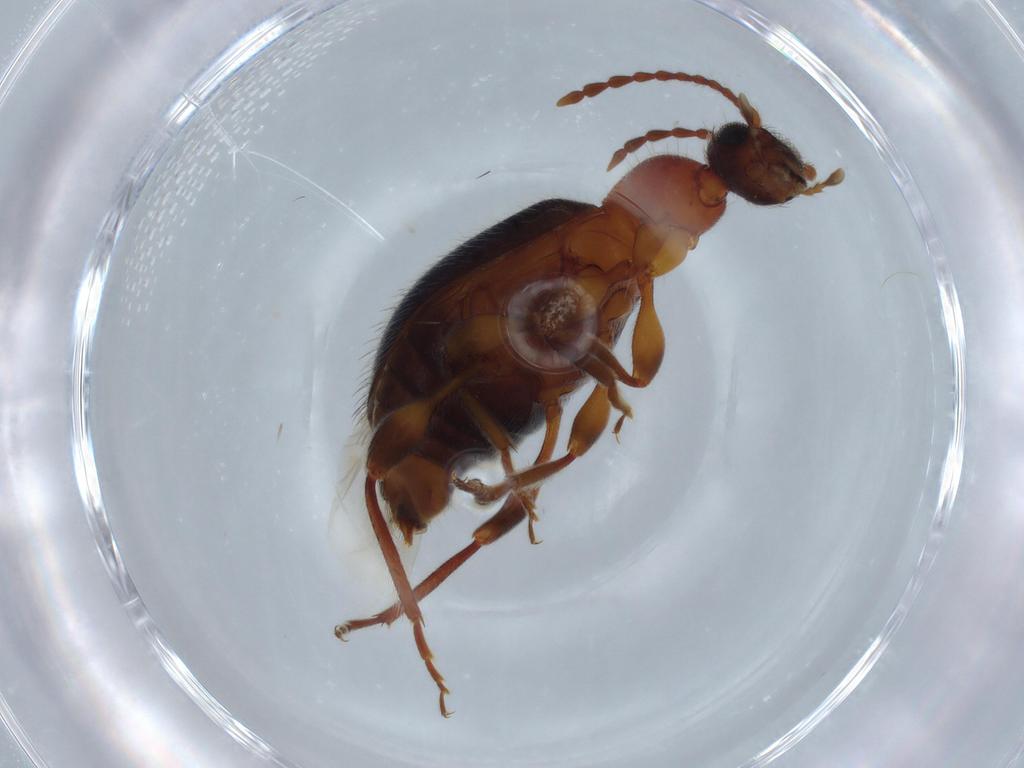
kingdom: Animalia
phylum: Arthropoda
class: Insecta
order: Coleoptera
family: Anthicidae
